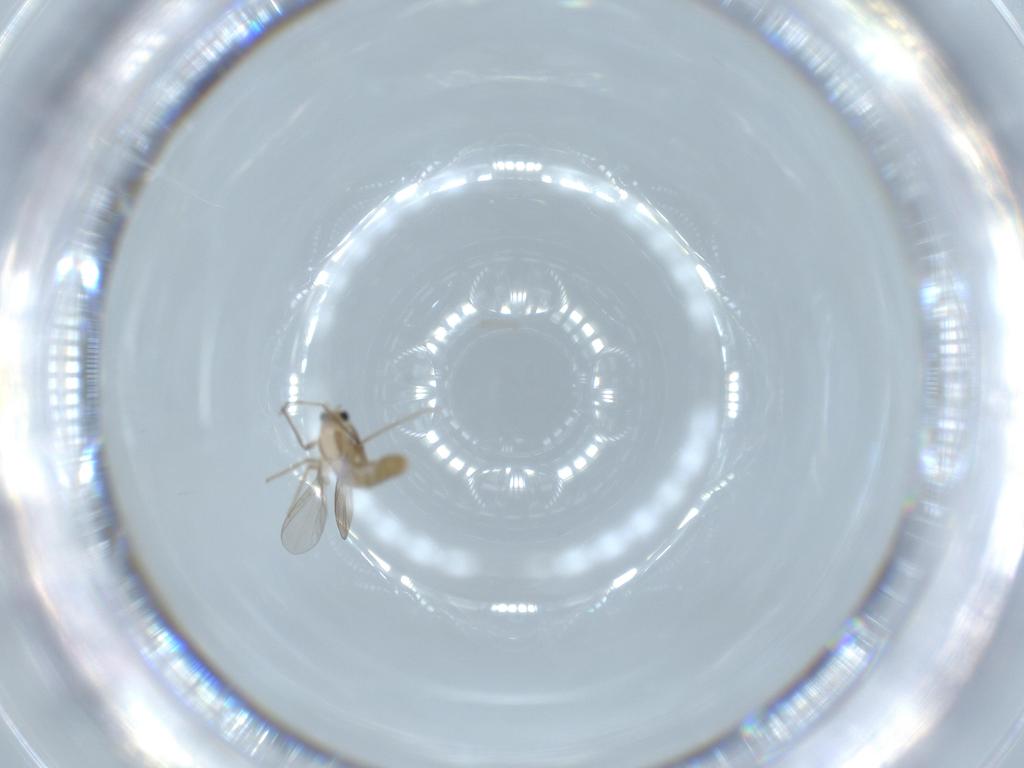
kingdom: Animalia
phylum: Arthropoda
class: Insecta
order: Diptera
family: Chironomidae
